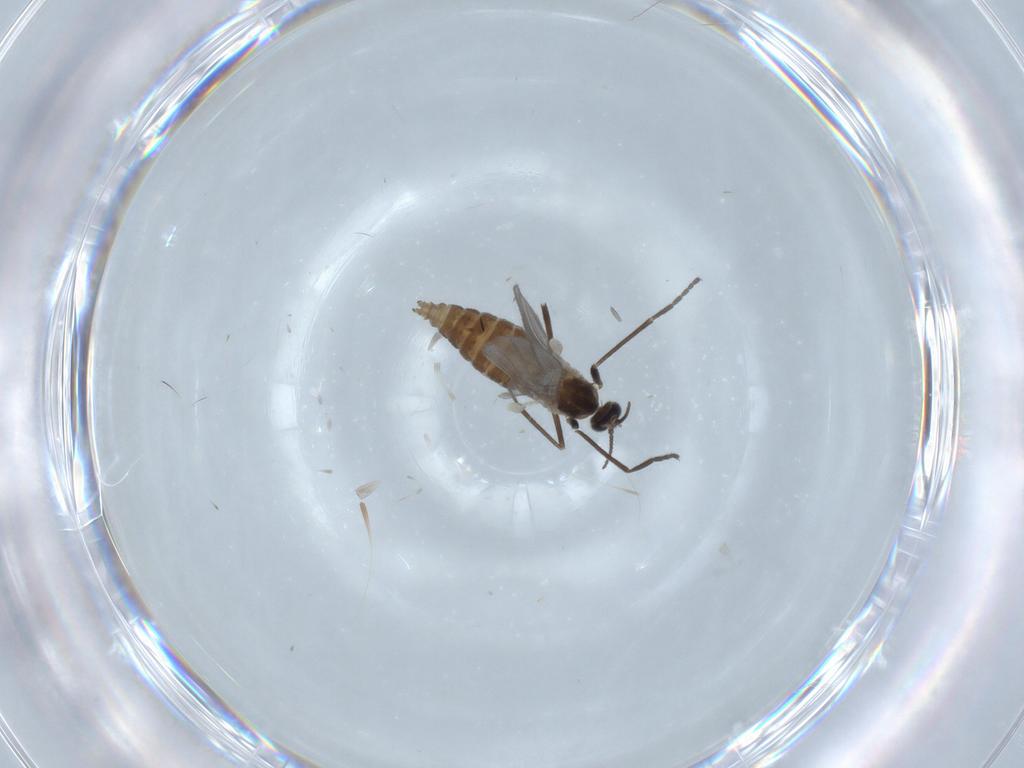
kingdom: Animalia
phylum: Arthropoda
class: Insecta
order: Diptera
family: Cecidomyiidae
